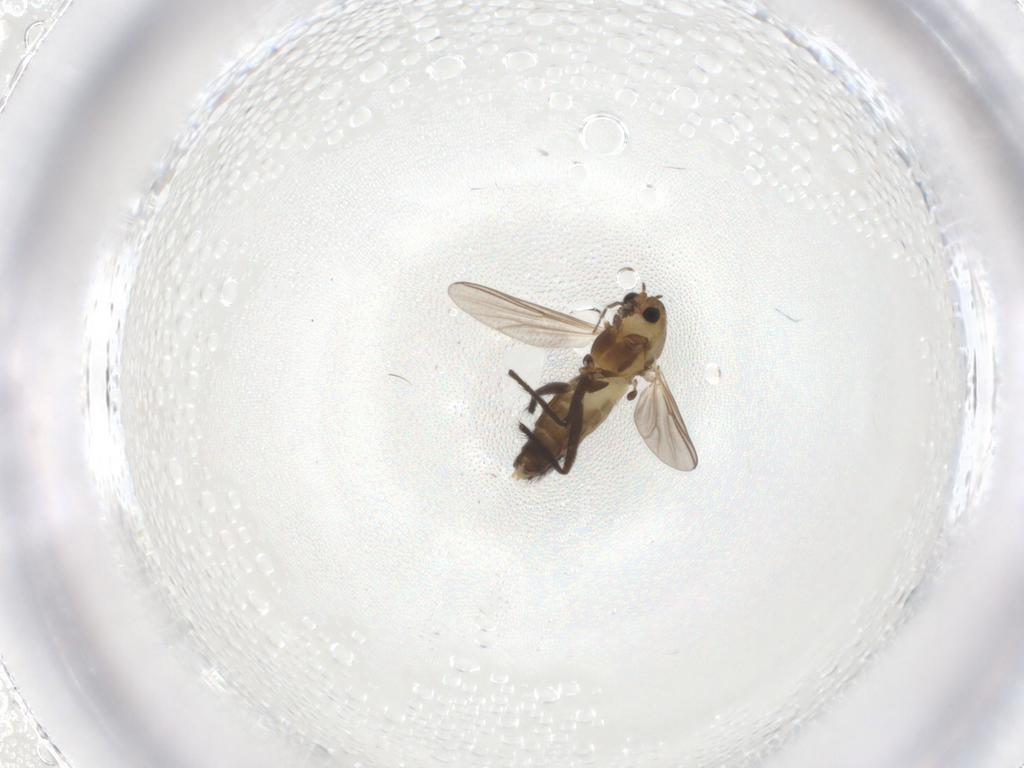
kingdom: Animalia
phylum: Arthropoda
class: Insecta
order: Diptera
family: Chironomidae
